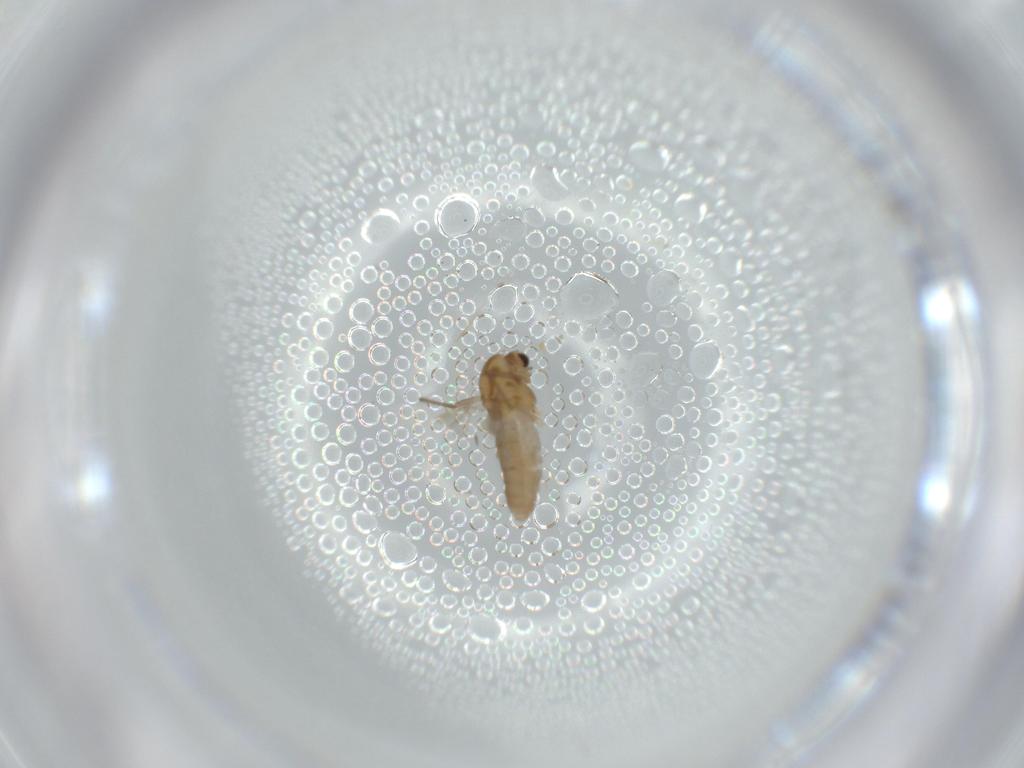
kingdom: Animalia
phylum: Arthropoda
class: Insecta
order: Diptera
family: Chironomidae
